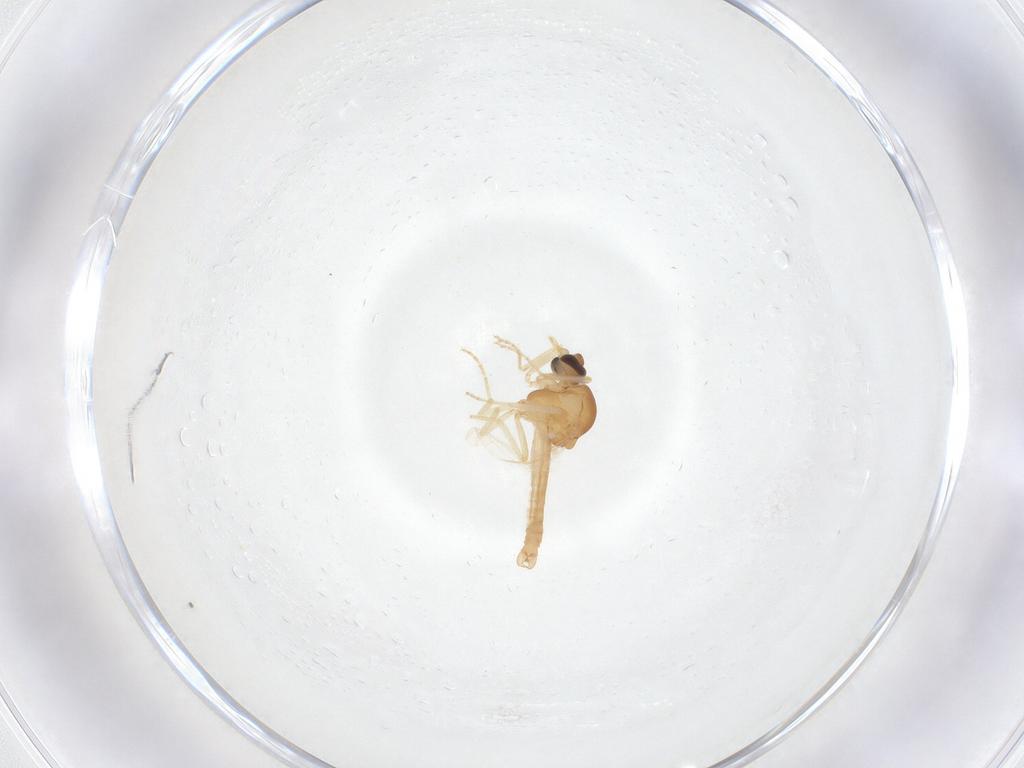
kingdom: Animalia
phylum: Arthropoda
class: Insecta
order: Diptera
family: Ceratopogonidae
